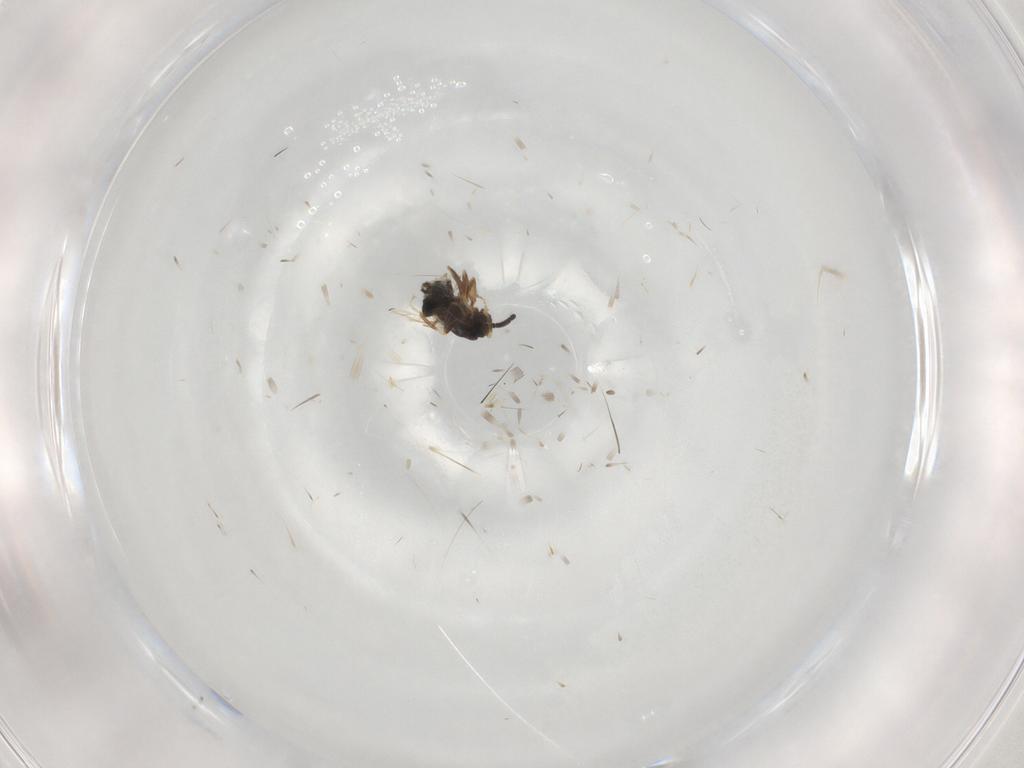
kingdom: Animalia
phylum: Arthropoda
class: Insecta
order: Diptera
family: Scatopsidae
